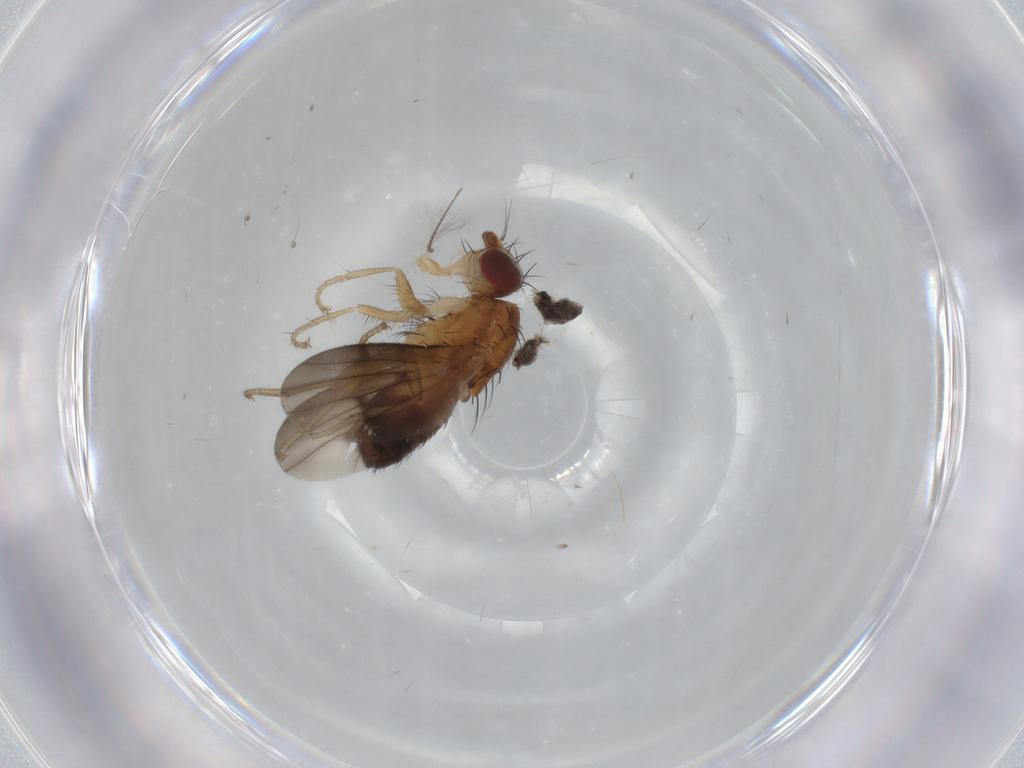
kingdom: Animalia
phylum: Arthropoda
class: Insecta
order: Diptera
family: Heleomyzidae
